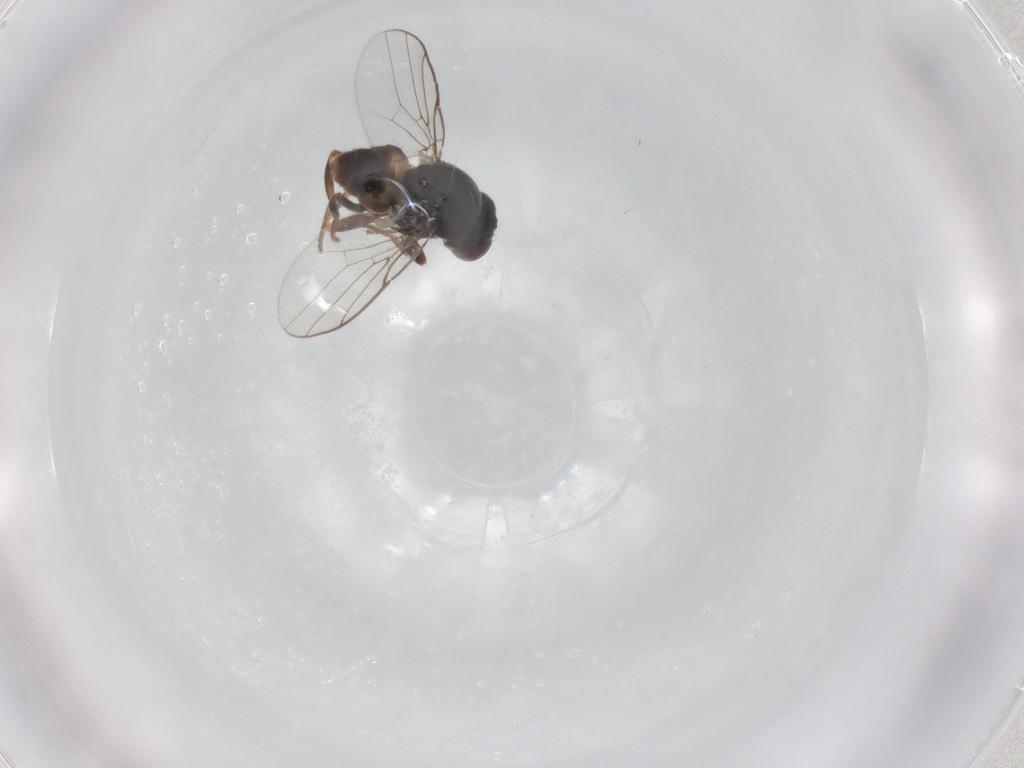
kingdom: Animalia
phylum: Arthropoda
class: Insecta
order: Diptera
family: Chloropidae
